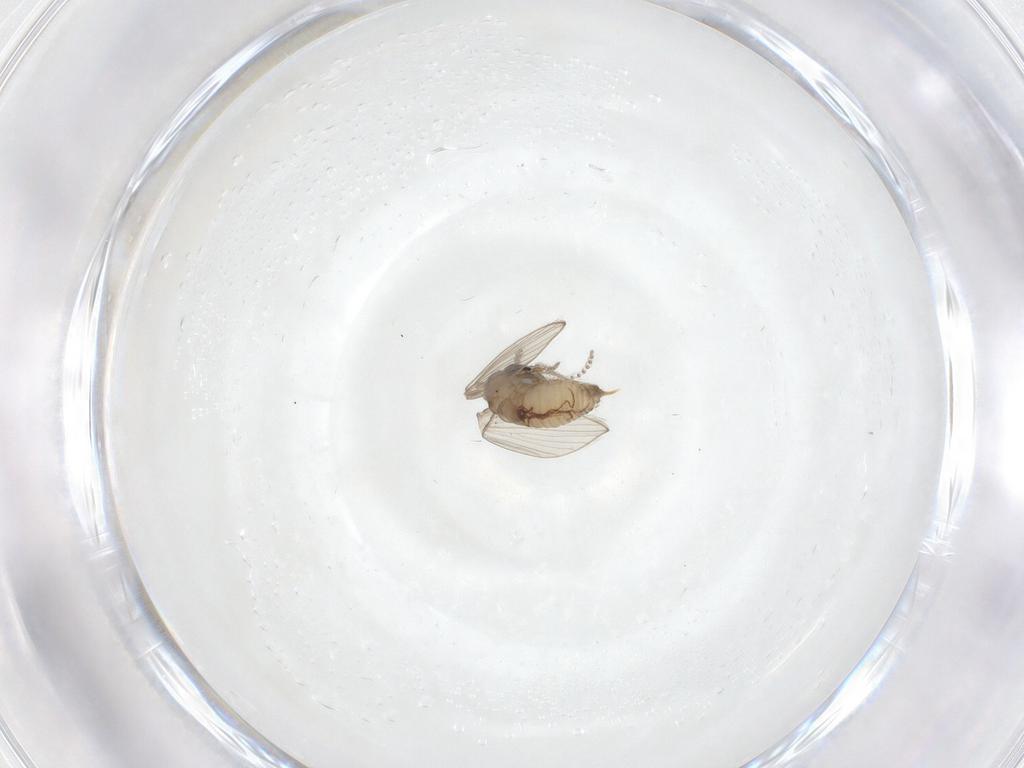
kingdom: Animalia
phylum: Arthropoda
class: Insecta
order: Diptera
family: Psychodidae
